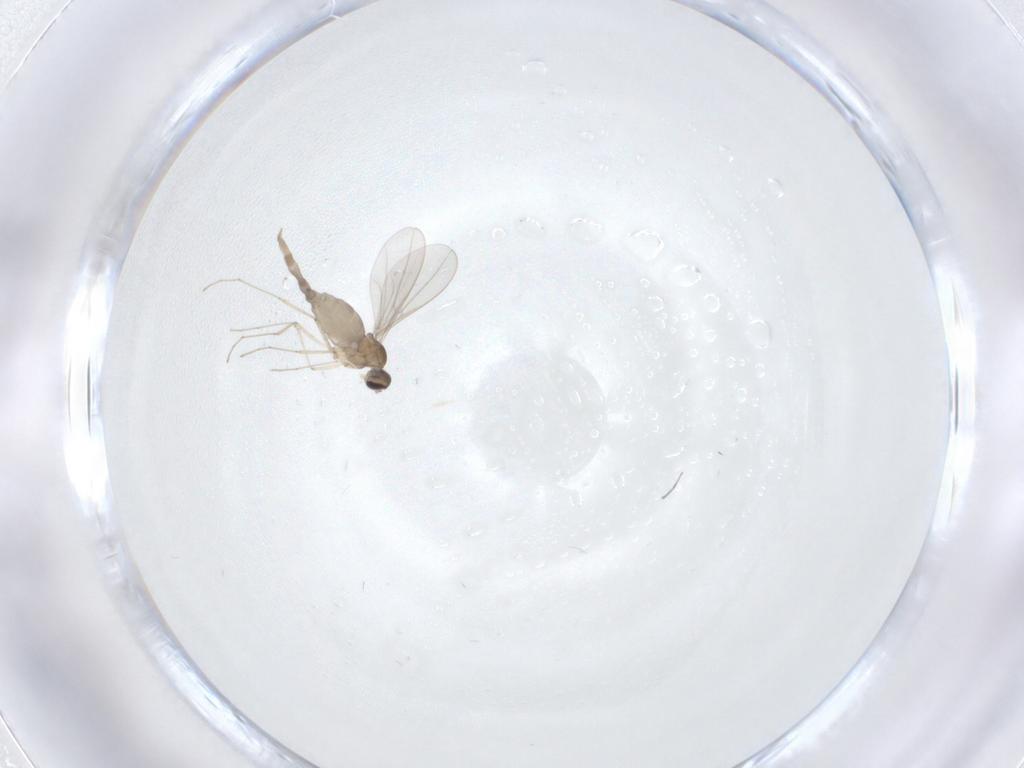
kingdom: Animalia
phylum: Arthropoda
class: Insecta
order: Diptera
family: Cecidomyiidae
